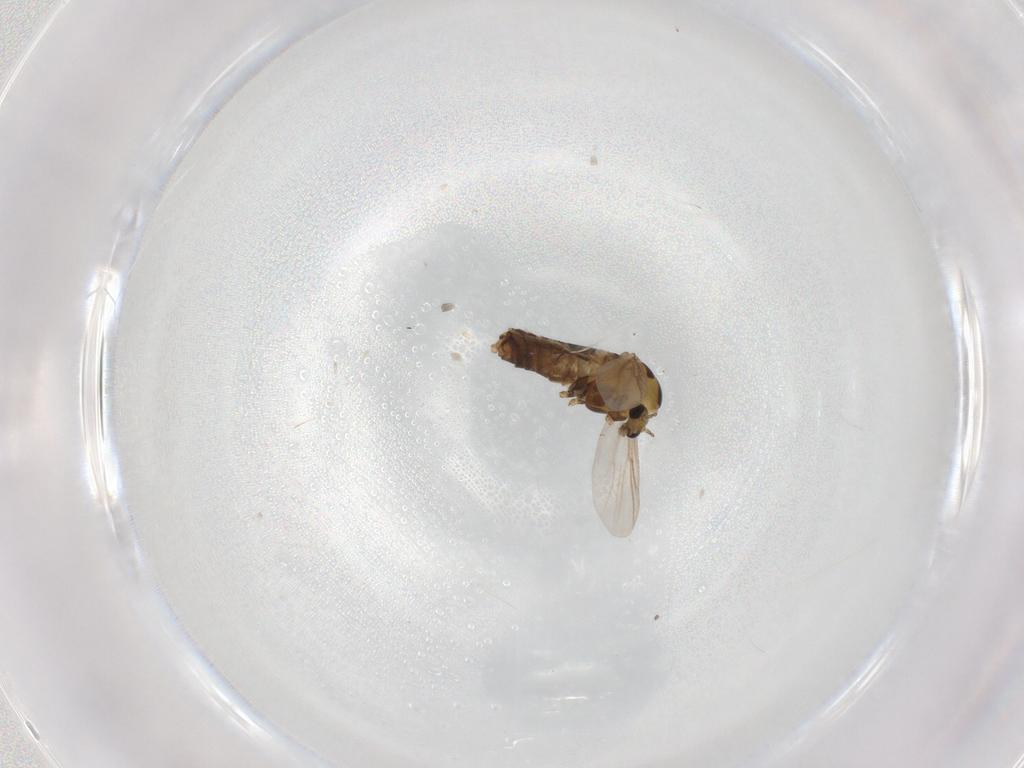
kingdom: Animalia
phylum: Arthropoda
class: Insecta
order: Diptera
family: Chironomidae
